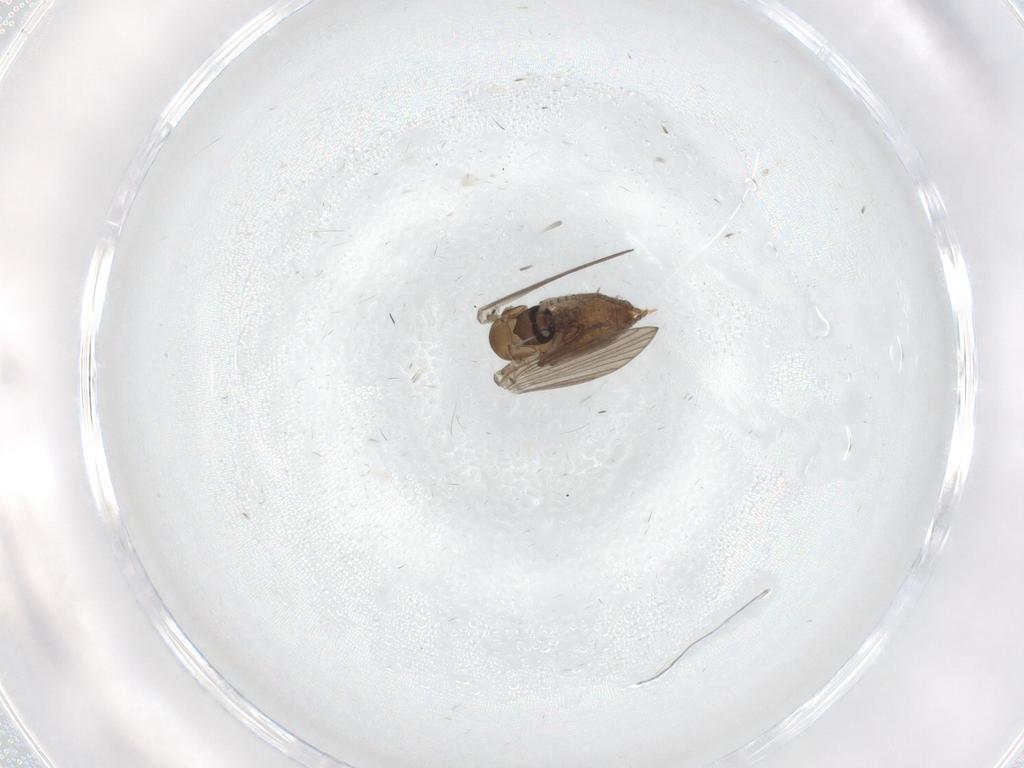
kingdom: Animalia
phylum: Arthropoda
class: Insecta
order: Diptera
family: Psychodidae
